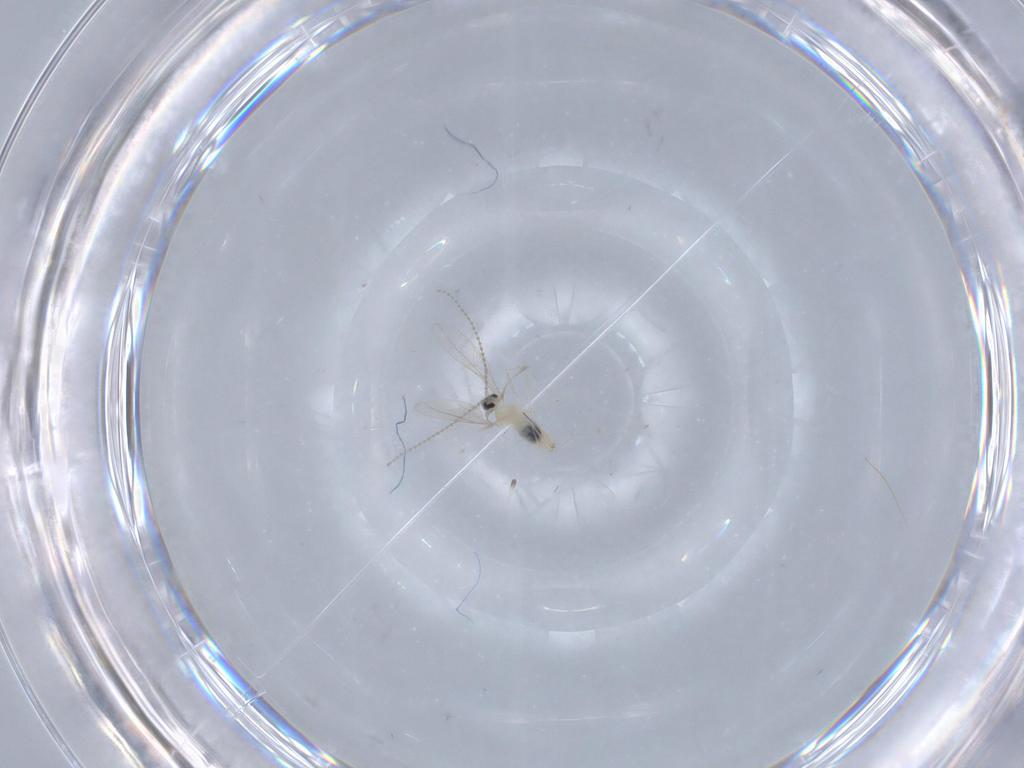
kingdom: Animalia
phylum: Arthropoda
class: Insecta
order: Diptera
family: Cecidomyiidae
